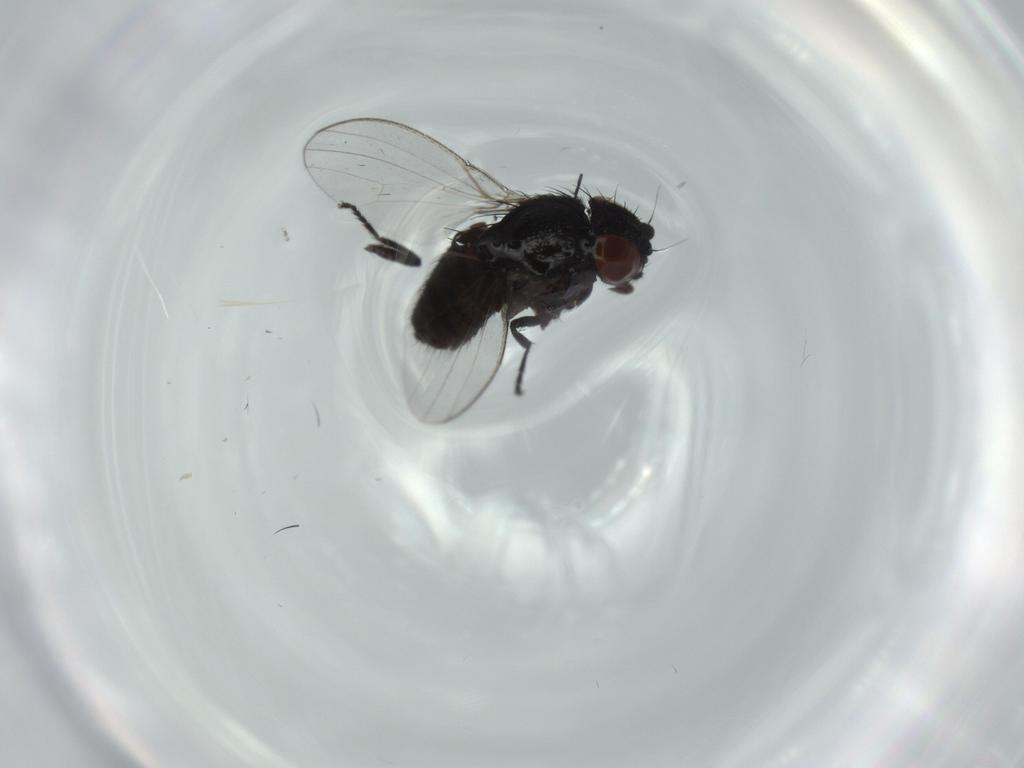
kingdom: Animalia
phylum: Arthropoda
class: Insecta
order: Diptera
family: Milichiidae
